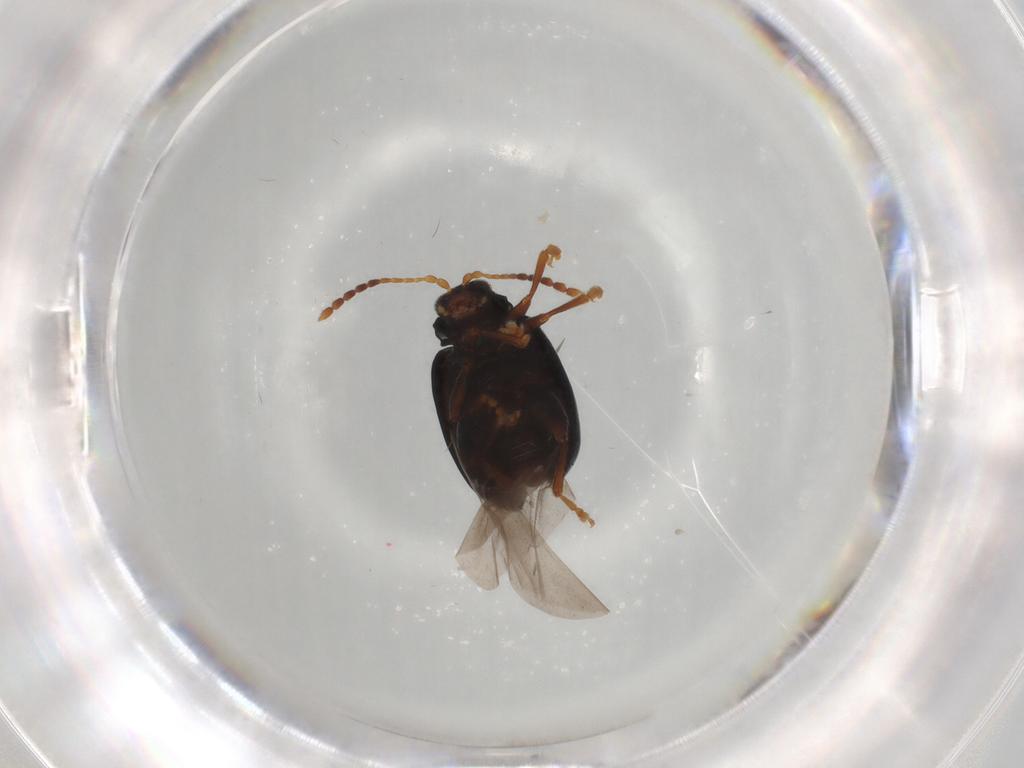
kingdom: Animalia
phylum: Arthropoda
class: Insecta
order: Coleoptera
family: Chrysomelidae
